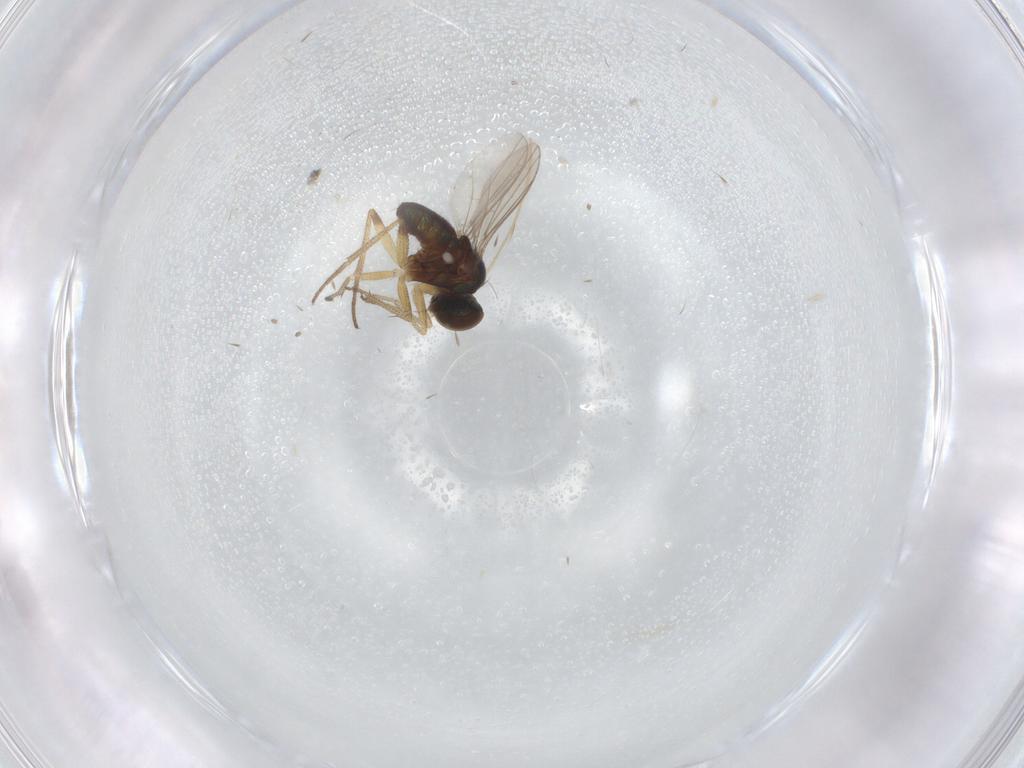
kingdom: Animalia
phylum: Arthropoda
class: Insecta
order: Diptera
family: Chironomidae
